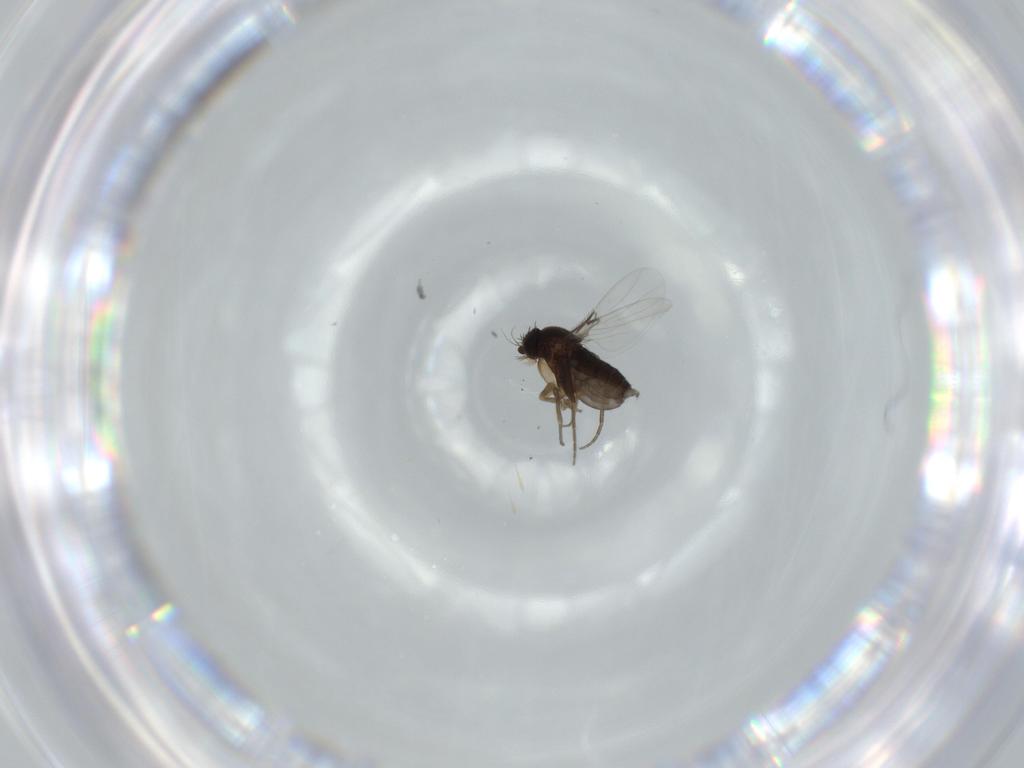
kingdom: Animalia
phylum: Arthropoda
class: Insecta
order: Diptera
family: Phoridae
